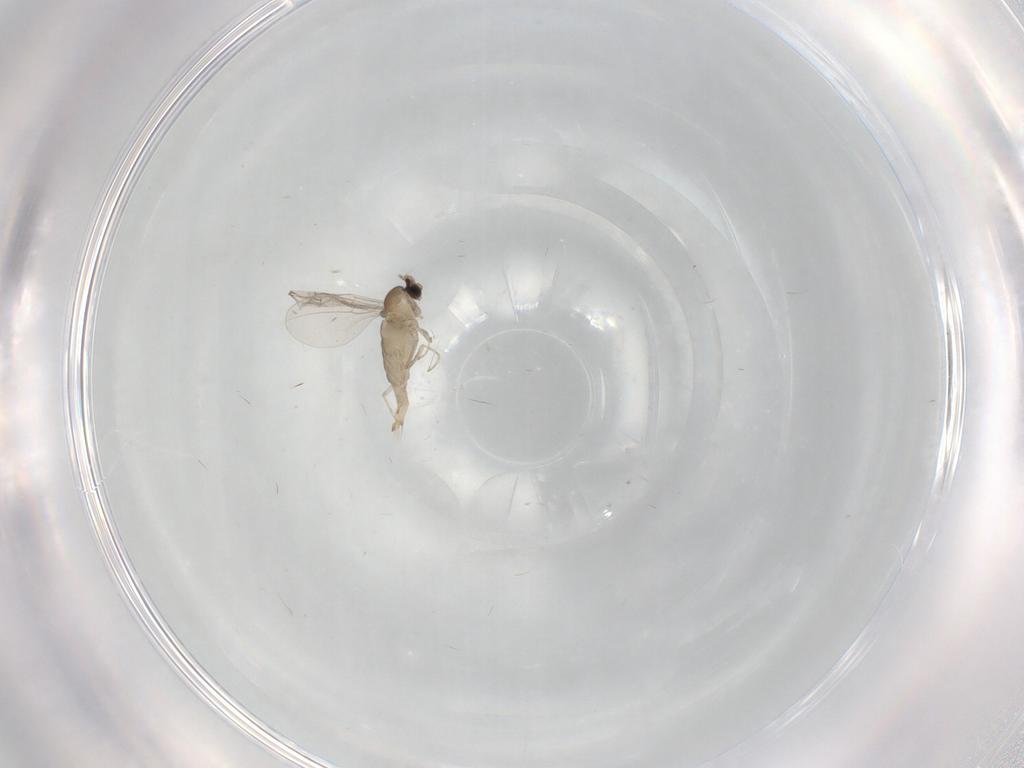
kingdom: Animalia
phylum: Arthropoda
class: Insecta
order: Diptera
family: Cecidomyiidae
